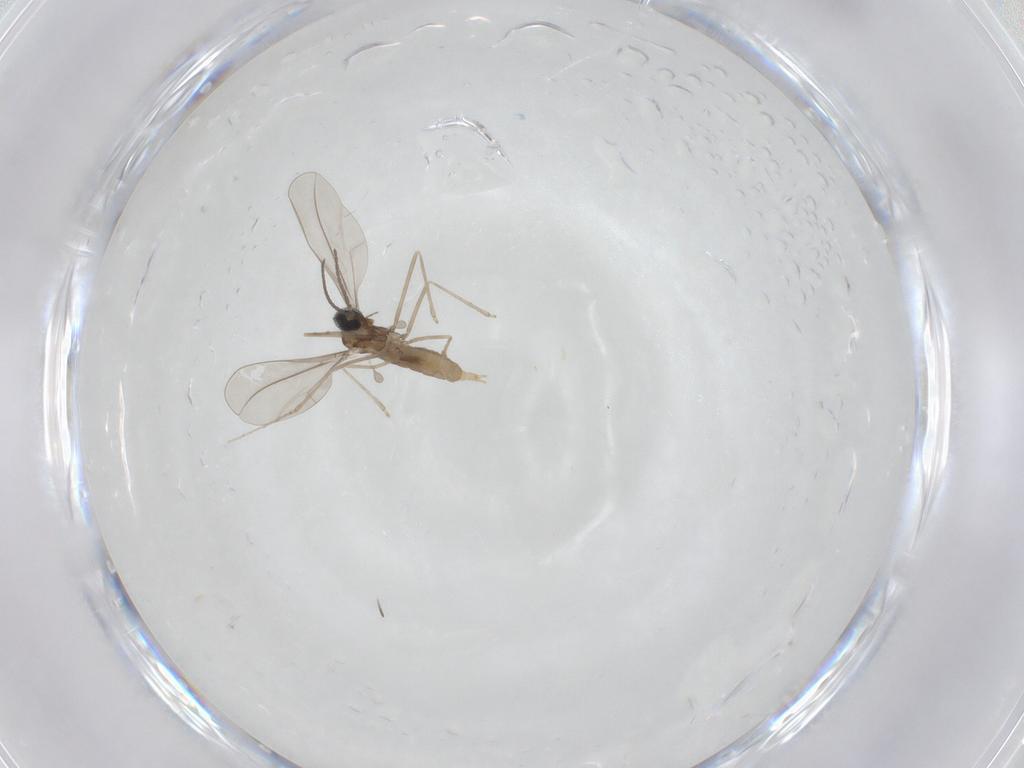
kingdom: Animalia
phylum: Arthropoda
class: Insecta
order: Diptera
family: Cecidomyiidae
